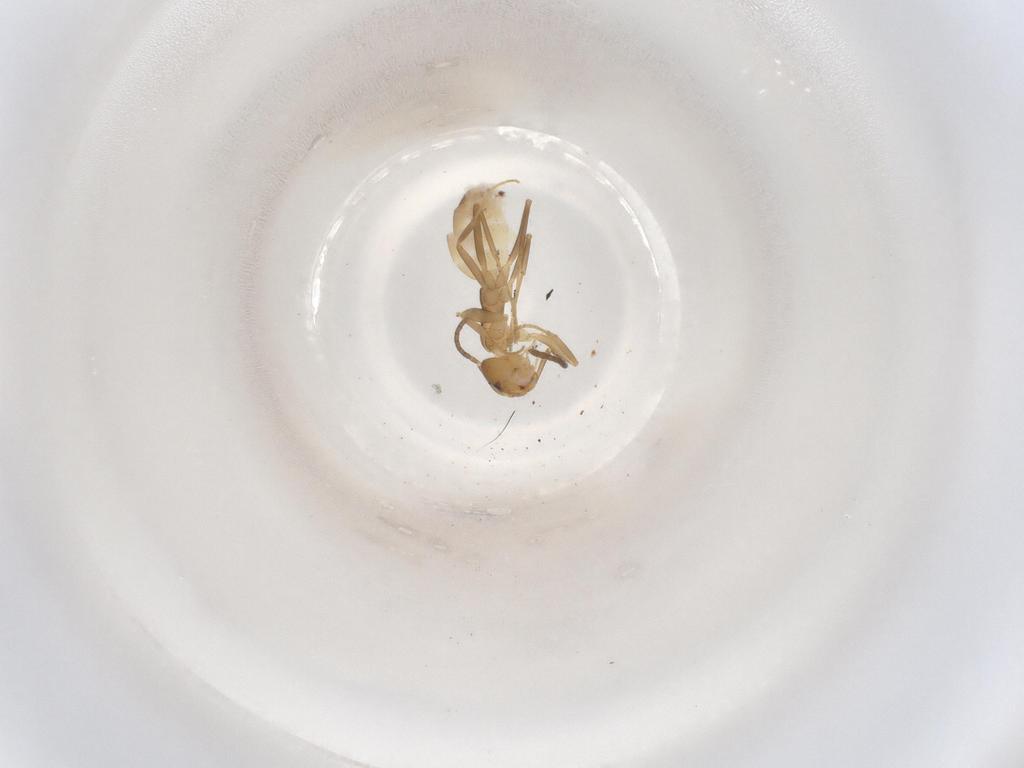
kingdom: Animalia
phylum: Arthropoda
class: Insecta
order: Hymenoptera
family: Formicidae
